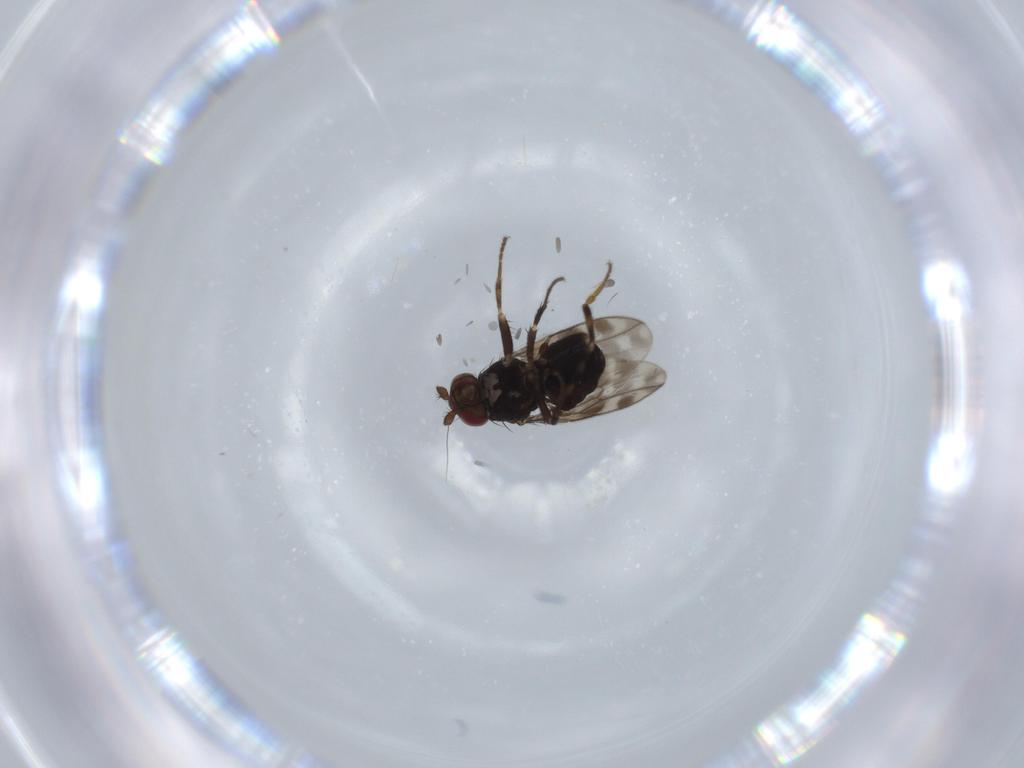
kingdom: Animalia
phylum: Arthropoda
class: Insecta
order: Diptera
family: Sphaeroceridae
